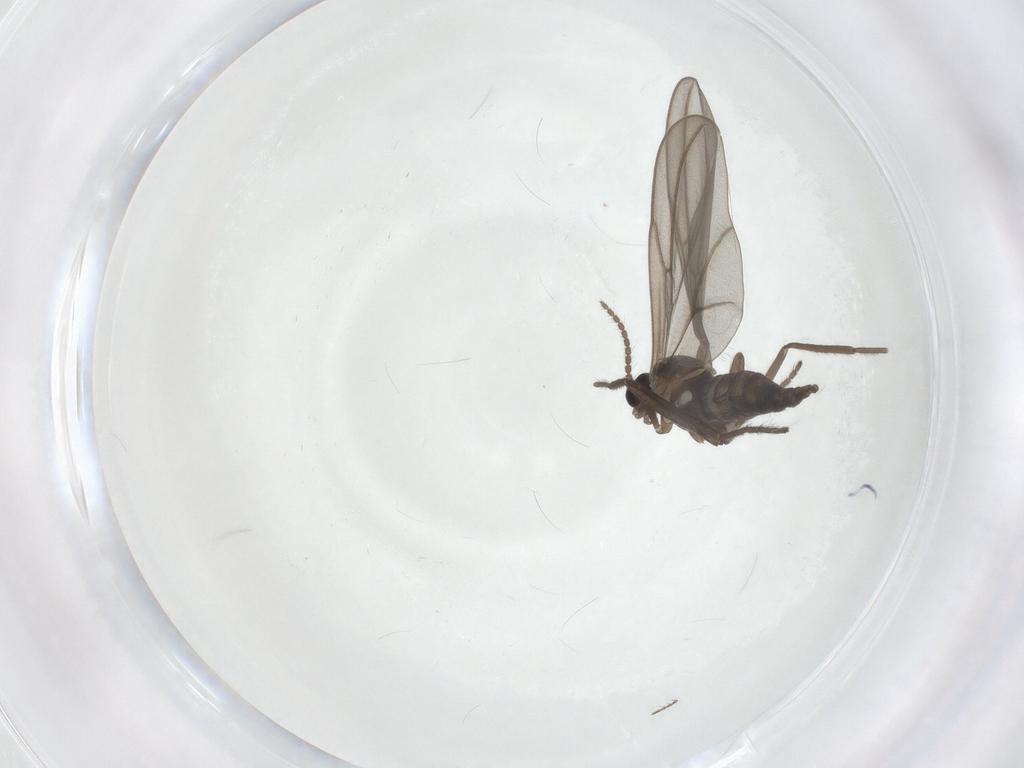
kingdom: Animalia
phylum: Arthropoda
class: Insecta
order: Diptera
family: Cecidomyiidae
